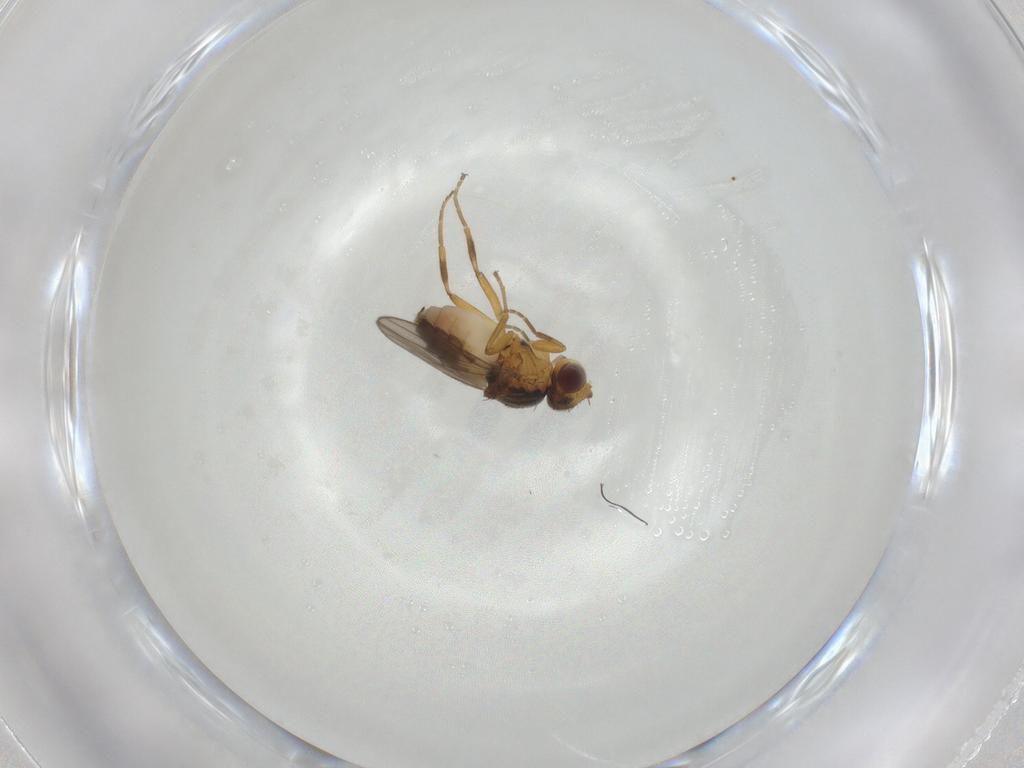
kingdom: Animalia
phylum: Arthropoda
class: Insecta
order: Diptera
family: Chloropidae
